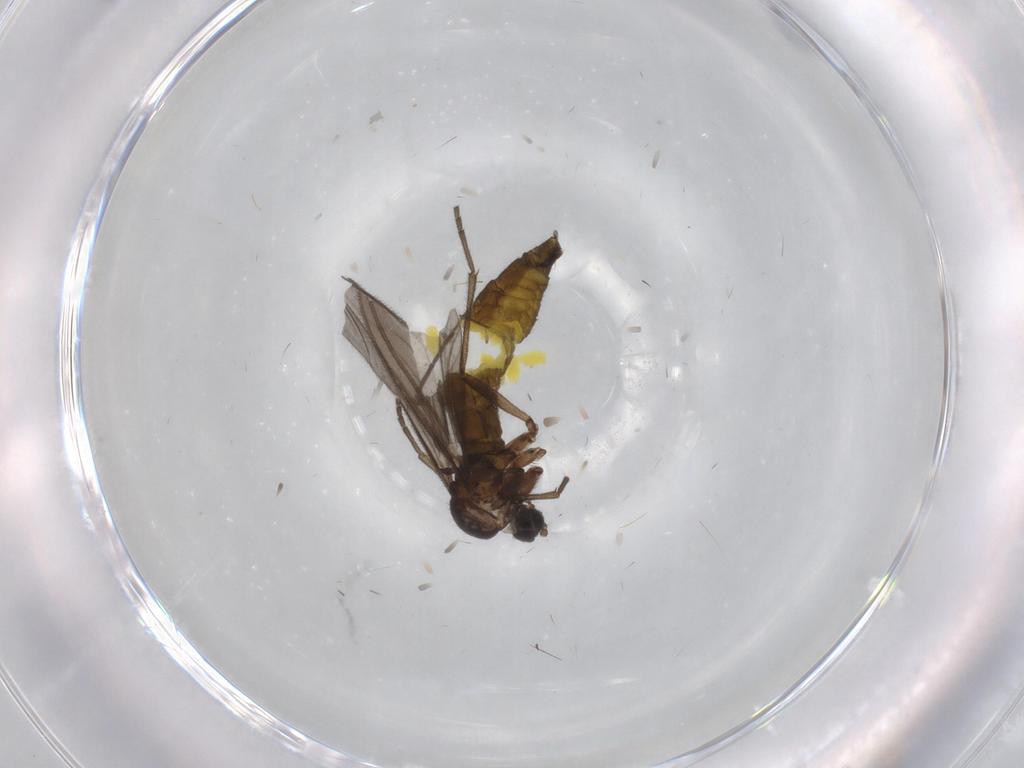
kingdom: Animalia
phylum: Arthropoda
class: Insecta
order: Diptera
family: Sciaridae
